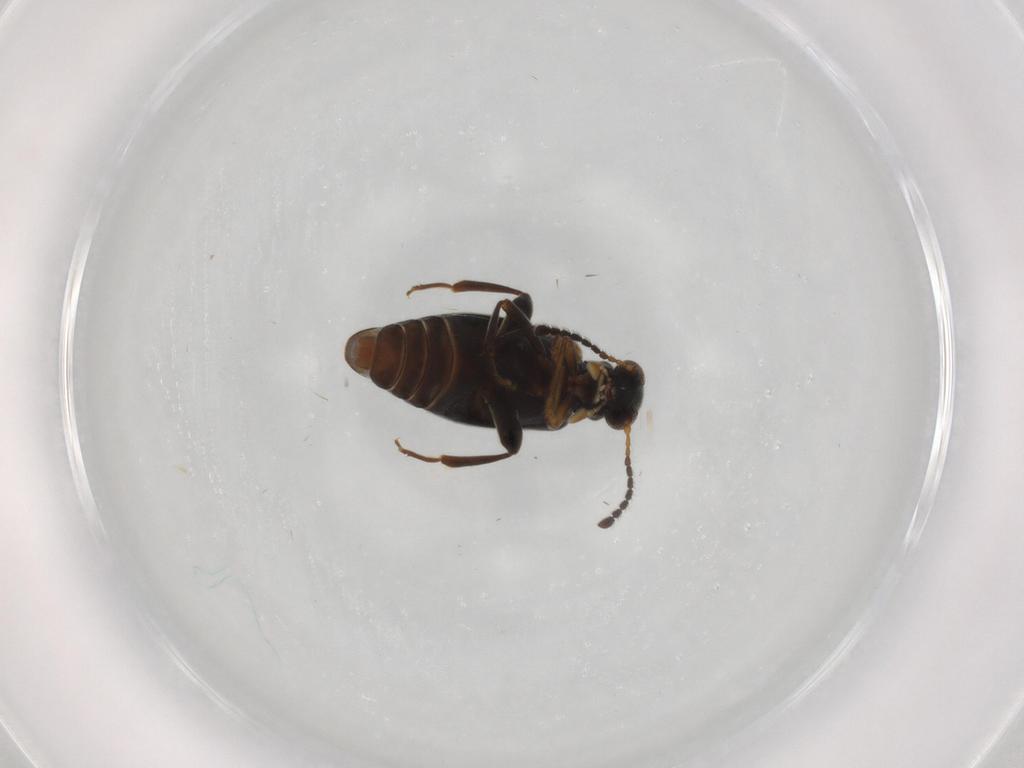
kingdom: Animalia
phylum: Arthropoda
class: Insecta
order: Coleoptera
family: Aderidae
